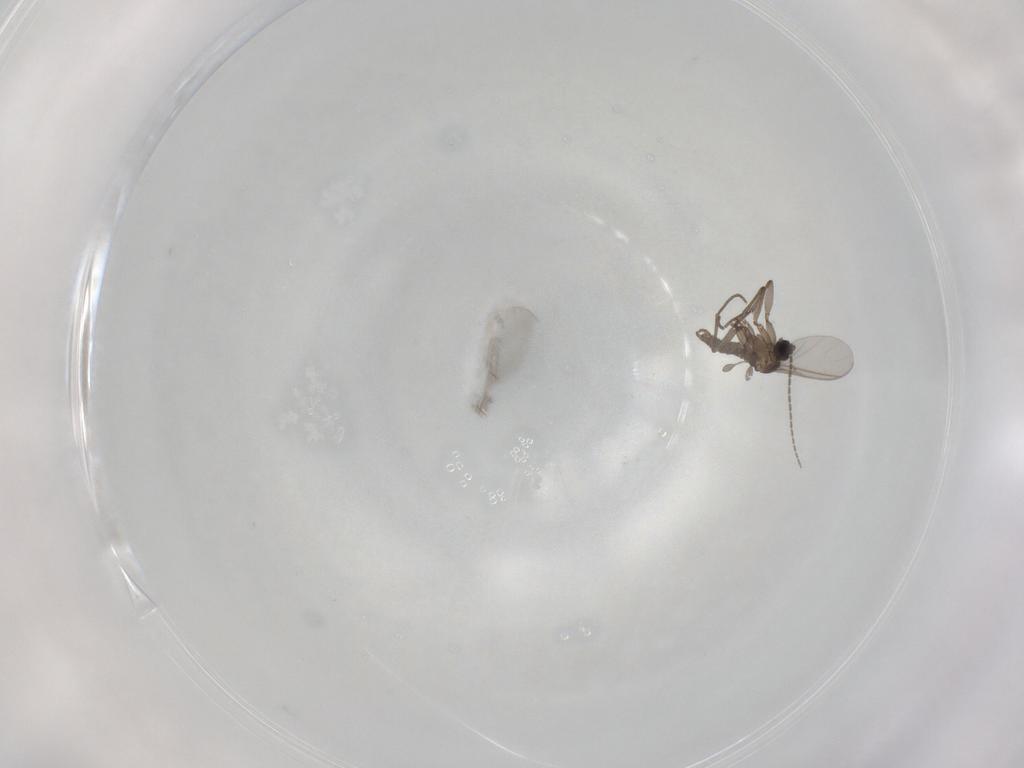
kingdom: Animalia
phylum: Arthropoda
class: Insecta
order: Diptera
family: Sciaridae
